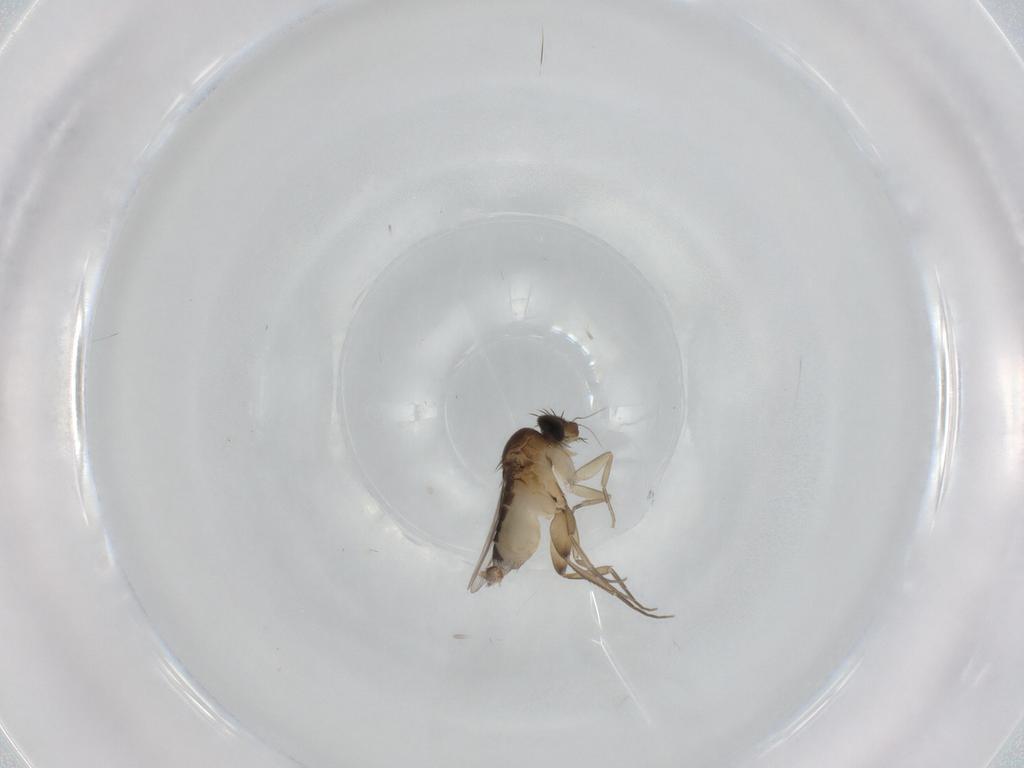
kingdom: Animalia
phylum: Arthropoda
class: Insecta
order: Diptera
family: Phoridae
